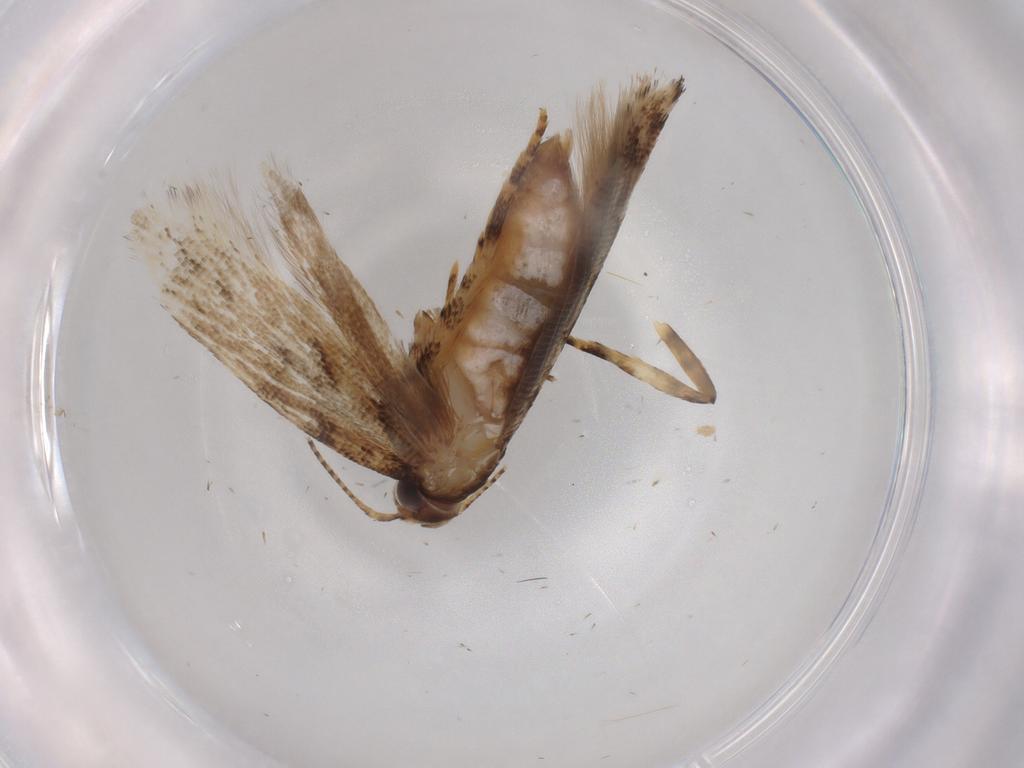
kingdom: Animalia
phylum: Arthropoda
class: Insecta
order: Lepidoptera
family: Gelechiidae
